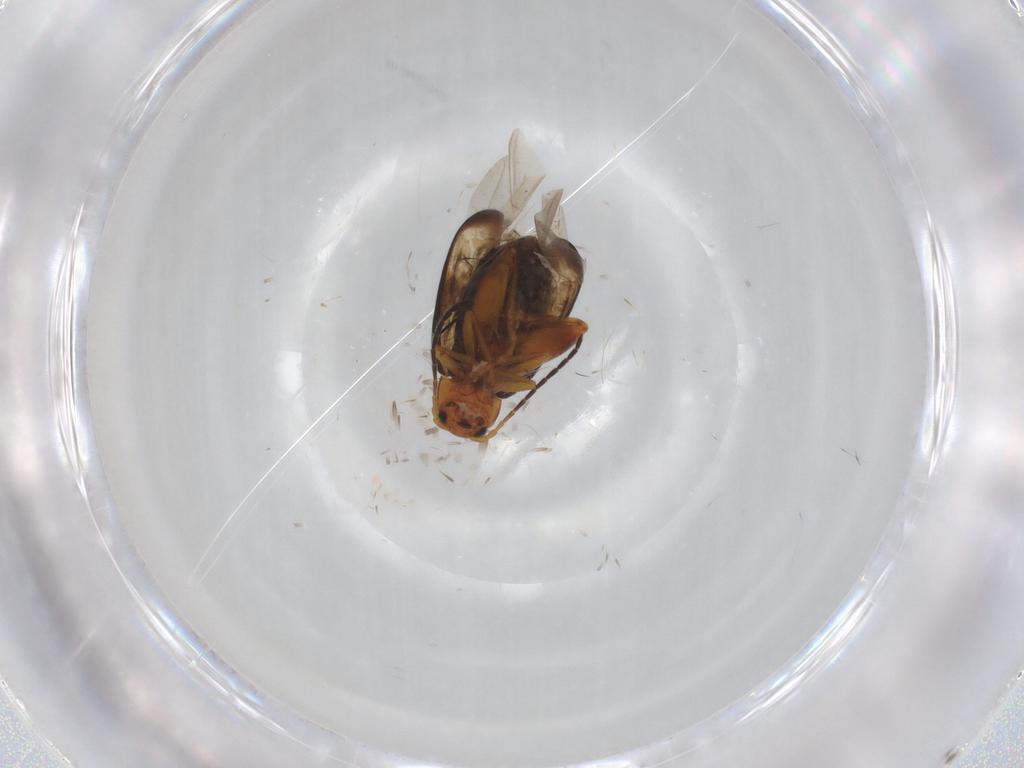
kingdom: Animalia
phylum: Arthropoda
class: Insecta
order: Coleoptera
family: Chrysomelidae
